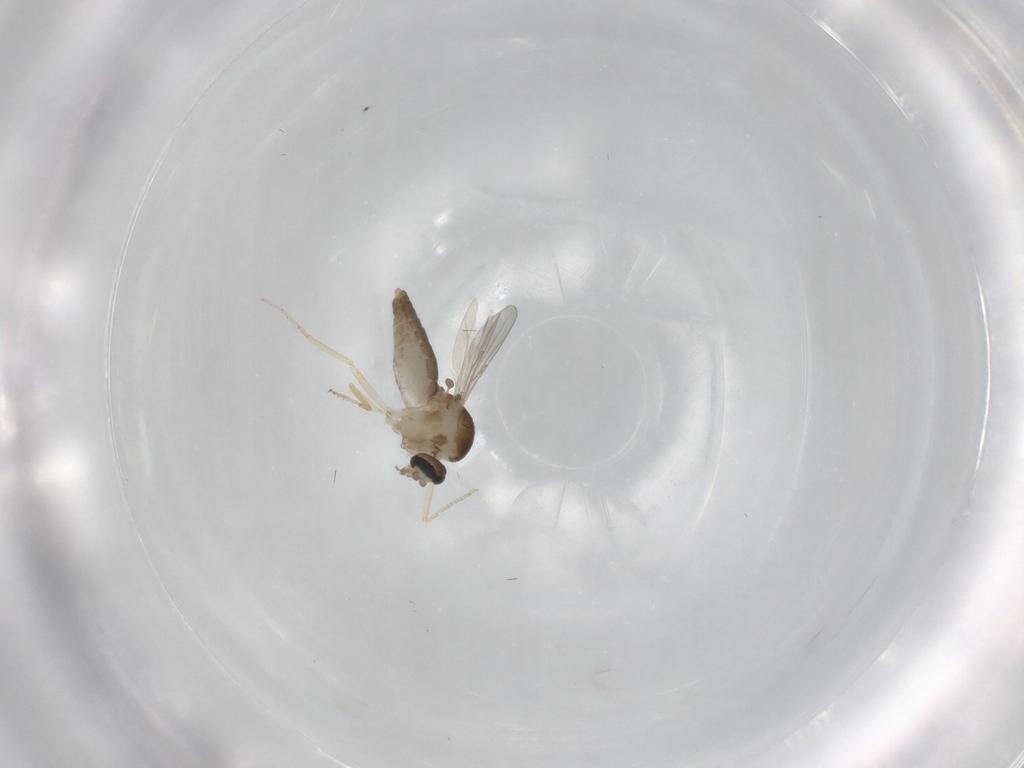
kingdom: Animalia
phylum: Arthropoda
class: Insecta
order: Diptera
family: Ceratopogonidae
